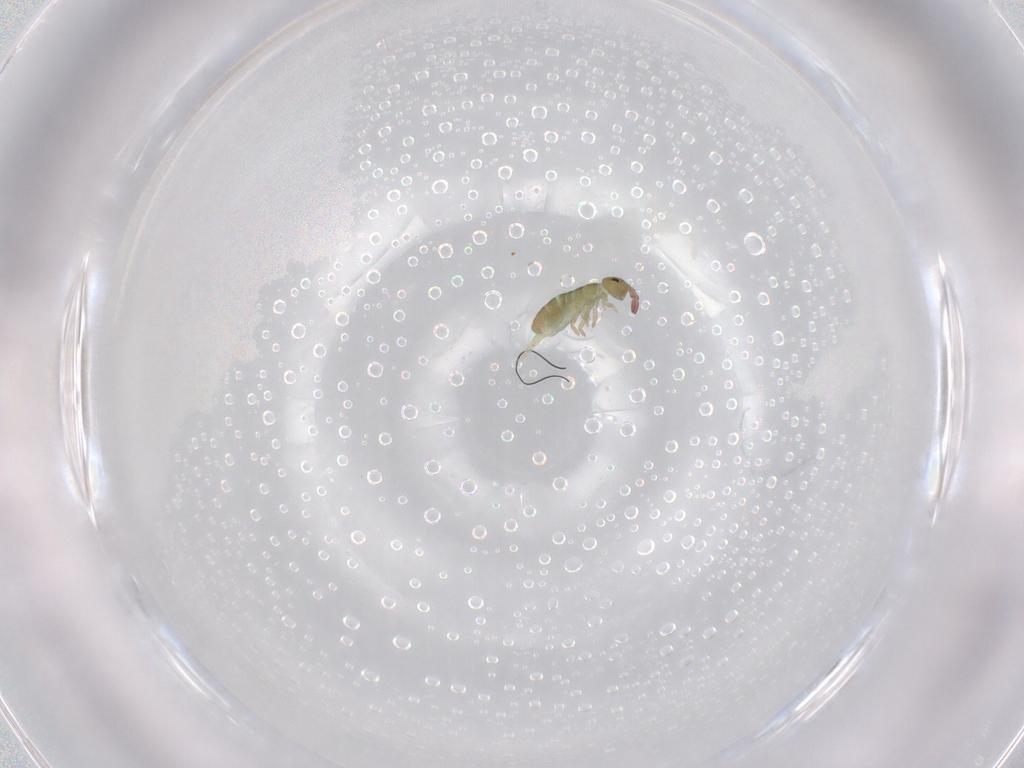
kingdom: Animalia
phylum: Arthropoda
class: Collembola
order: Entomobryomorpha
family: Isotomidae
